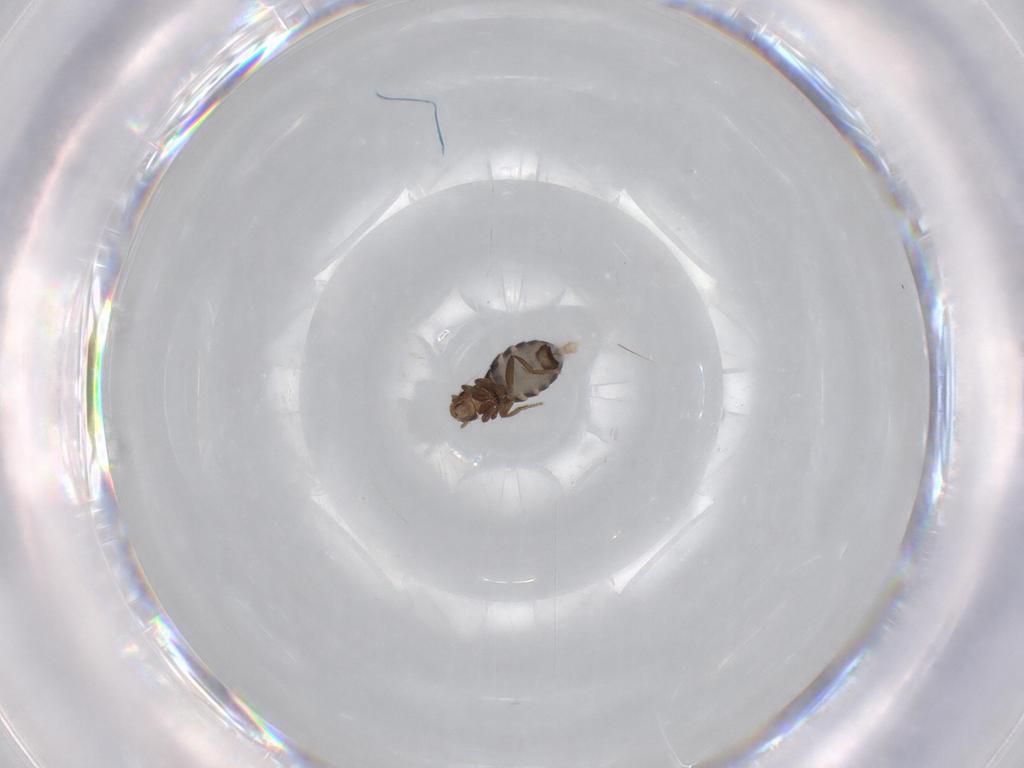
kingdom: Animalia
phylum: Arthropoda
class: Insecta
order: Diptera
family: Phoridae
